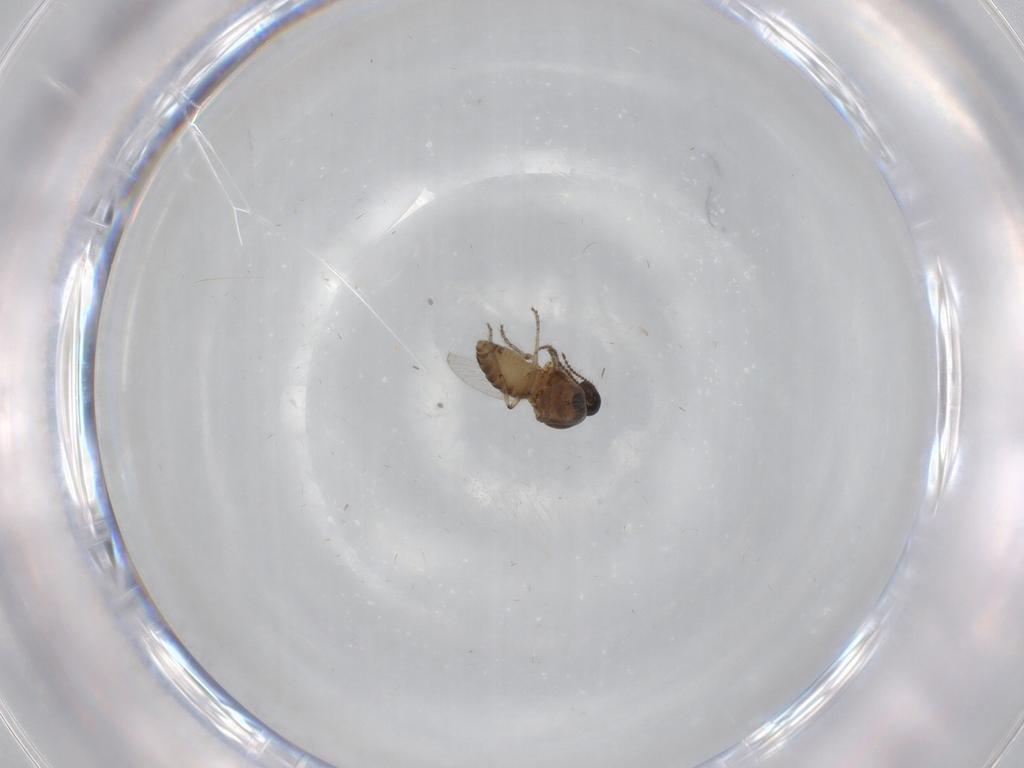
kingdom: Animalia
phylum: Arthropoda
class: Insecta
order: Diptera
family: Ceratopogonidae
